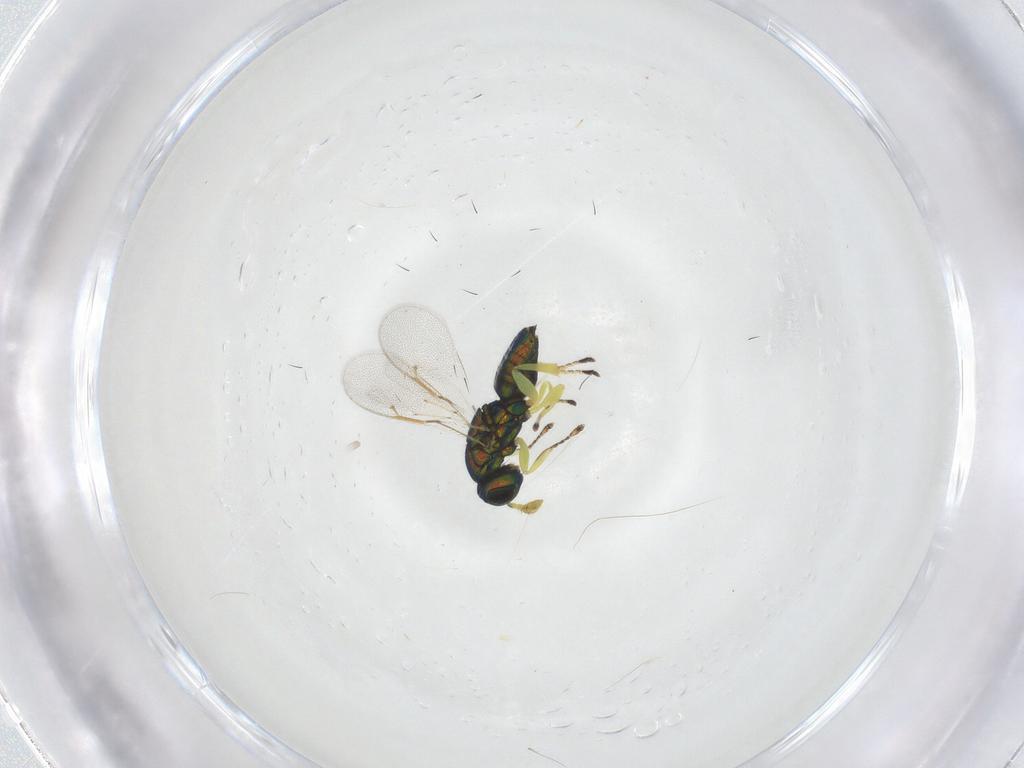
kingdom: Animalia
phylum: Arthropoda
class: Insecta
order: Hymenoptera
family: Eulophidae
